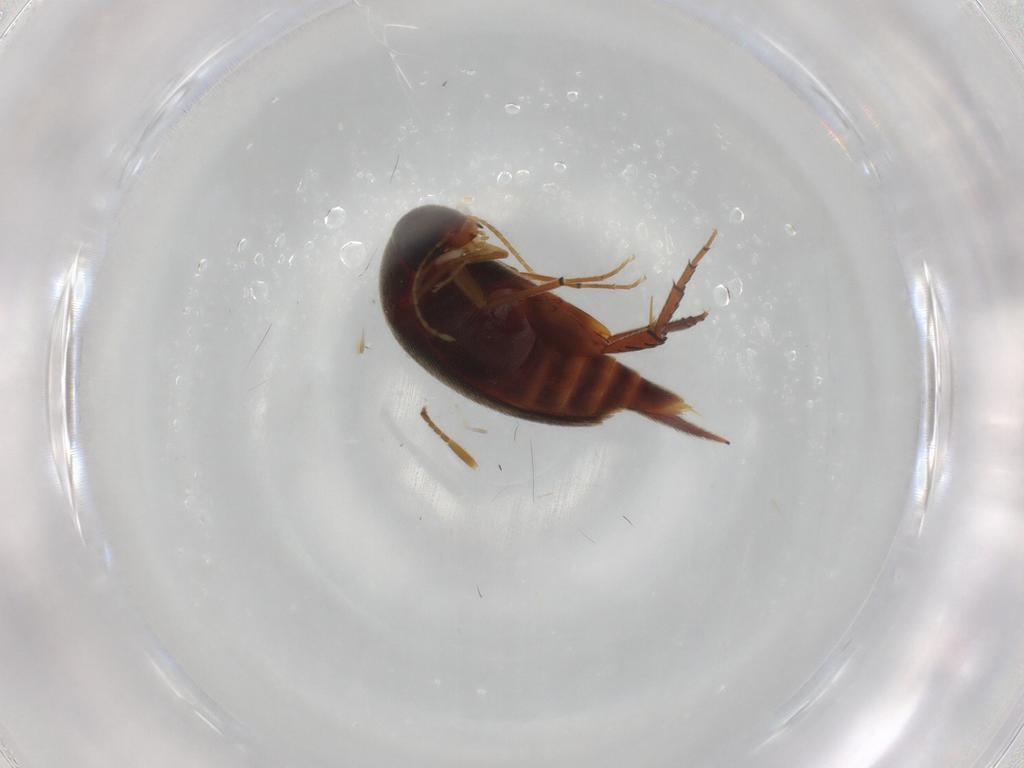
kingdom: Animalia
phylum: Arthropoda
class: Insecta
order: Coleoptera
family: Mordellidae
